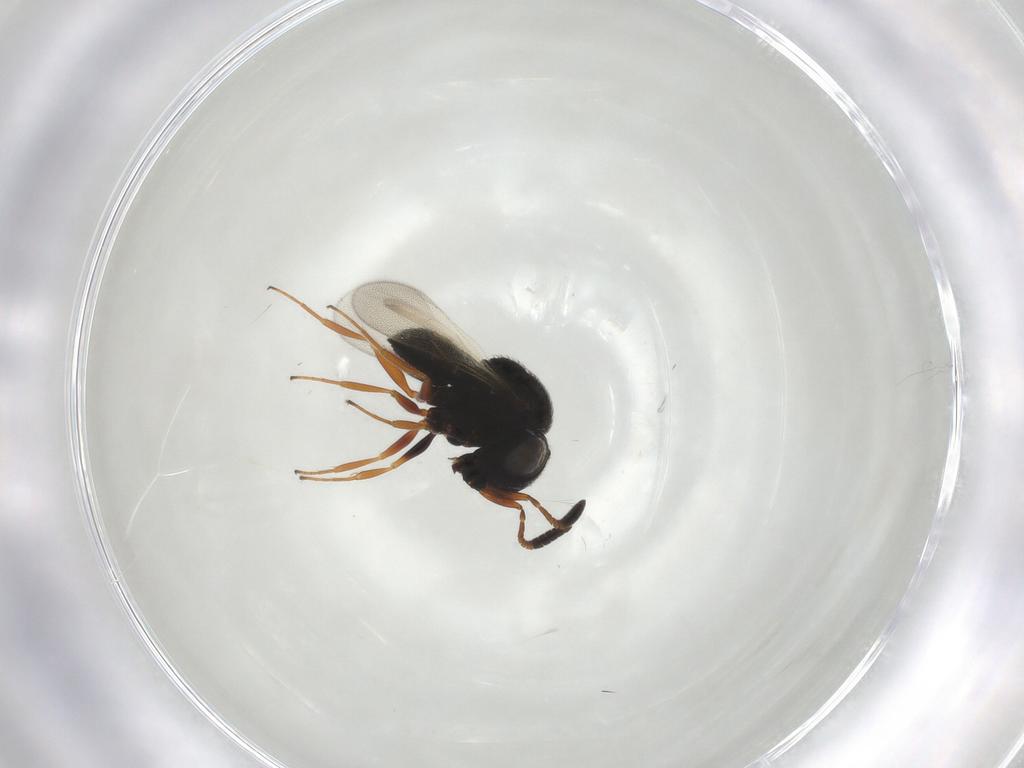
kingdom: Animalia
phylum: Arthropoda
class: Insecta
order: Hymenoptera
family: Scelionidae
